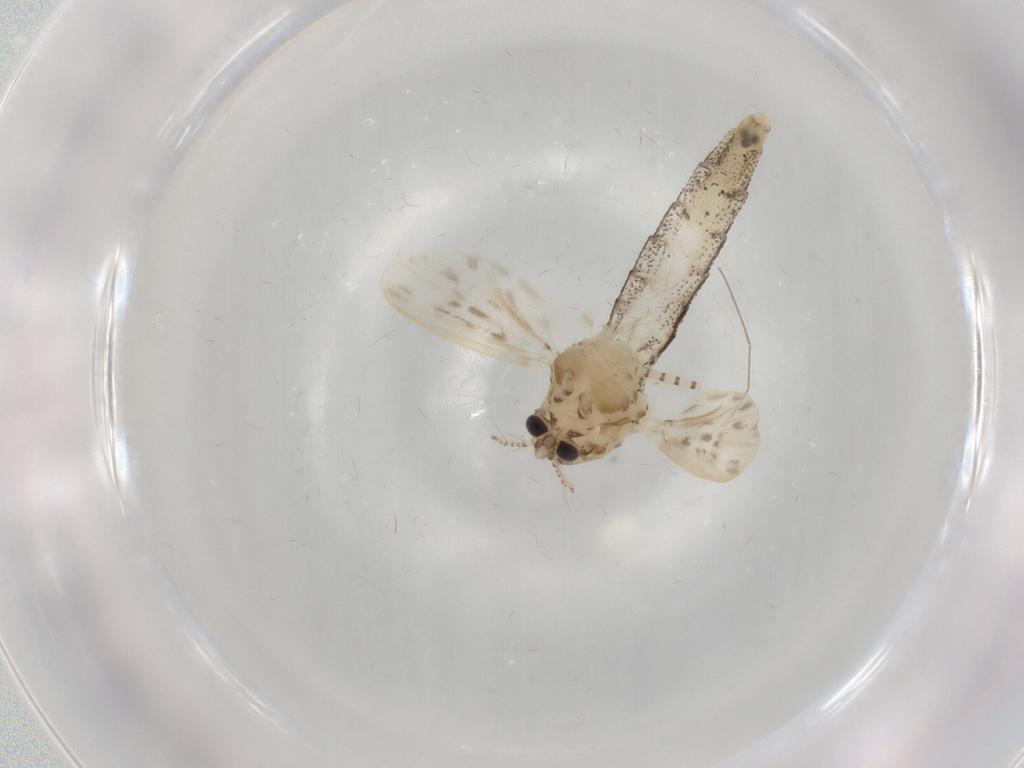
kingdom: Animalia
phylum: Arthropoda
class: Insecta
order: Diptera
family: Chaoboridae
